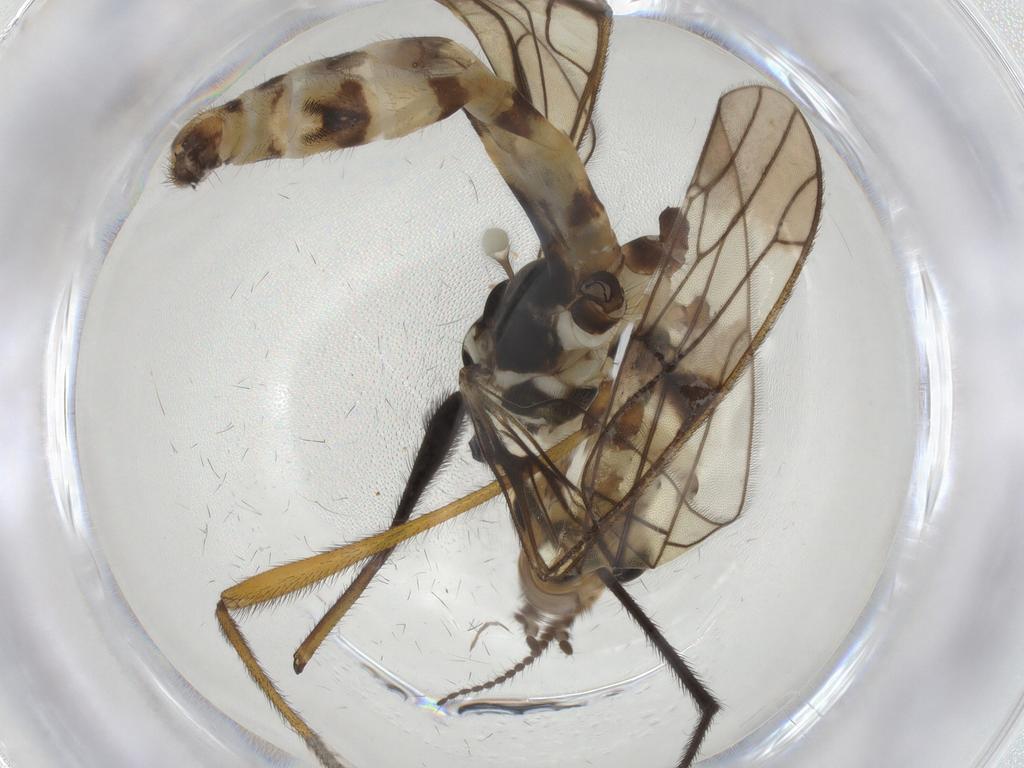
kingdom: Animalia
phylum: Arthropoda
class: Insecta
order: Diptera
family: Limoniidae
